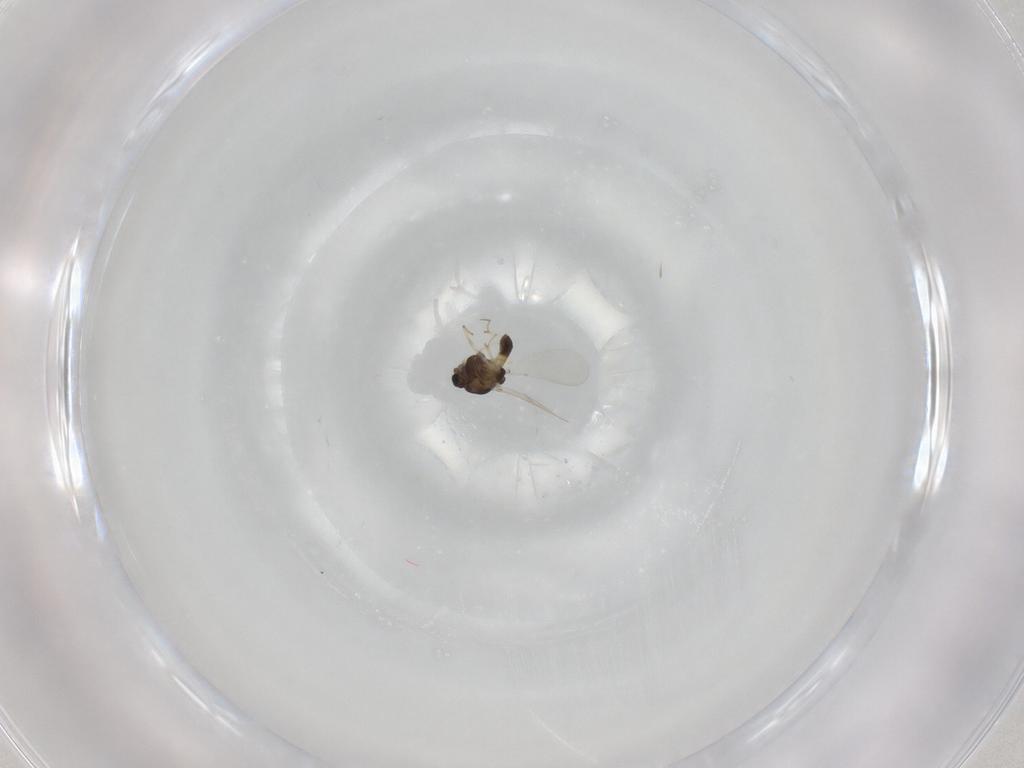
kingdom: Animalia
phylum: Arthropoda
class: Insecta
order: Diptera
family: Chironomidae
